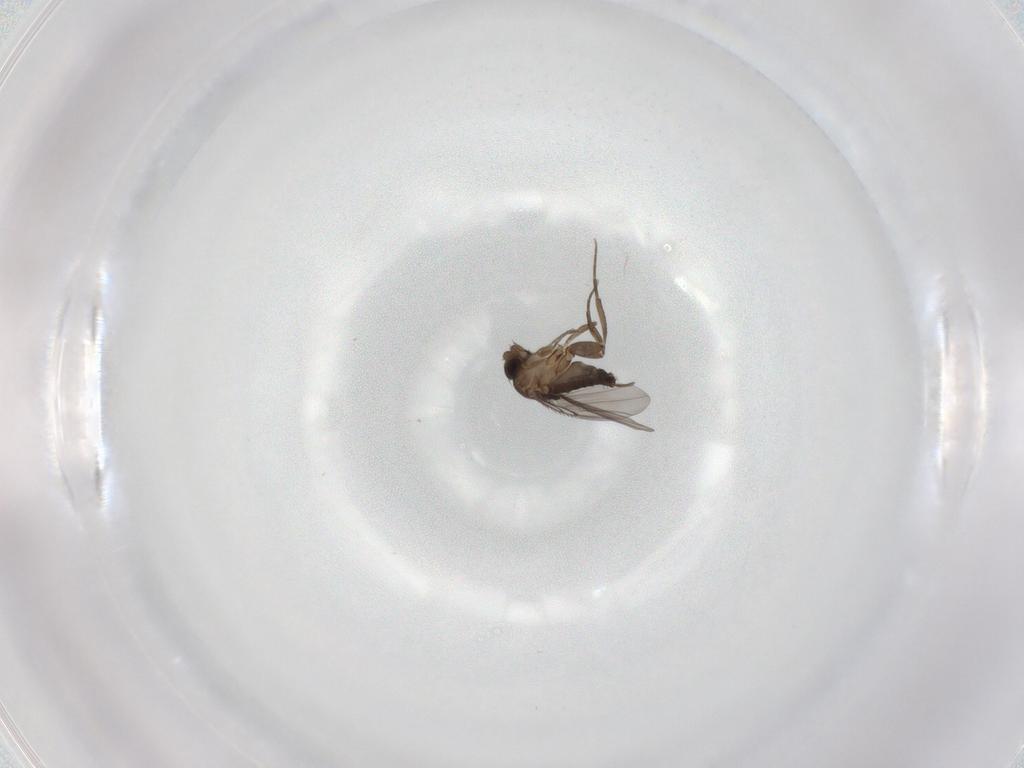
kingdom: Animalia
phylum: Arthropoda
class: Insecta
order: Diptera
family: Phoridae
